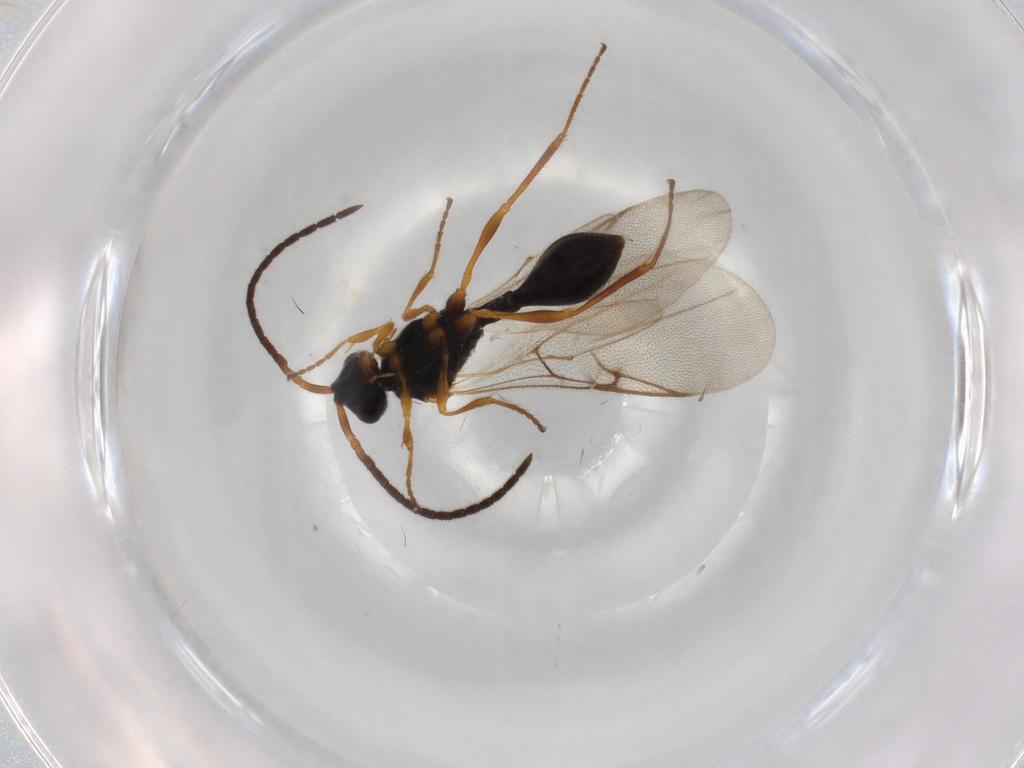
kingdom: Animalia
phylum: Arthropoda
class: Insecta
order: Hymenoptera
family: Diapriidae
